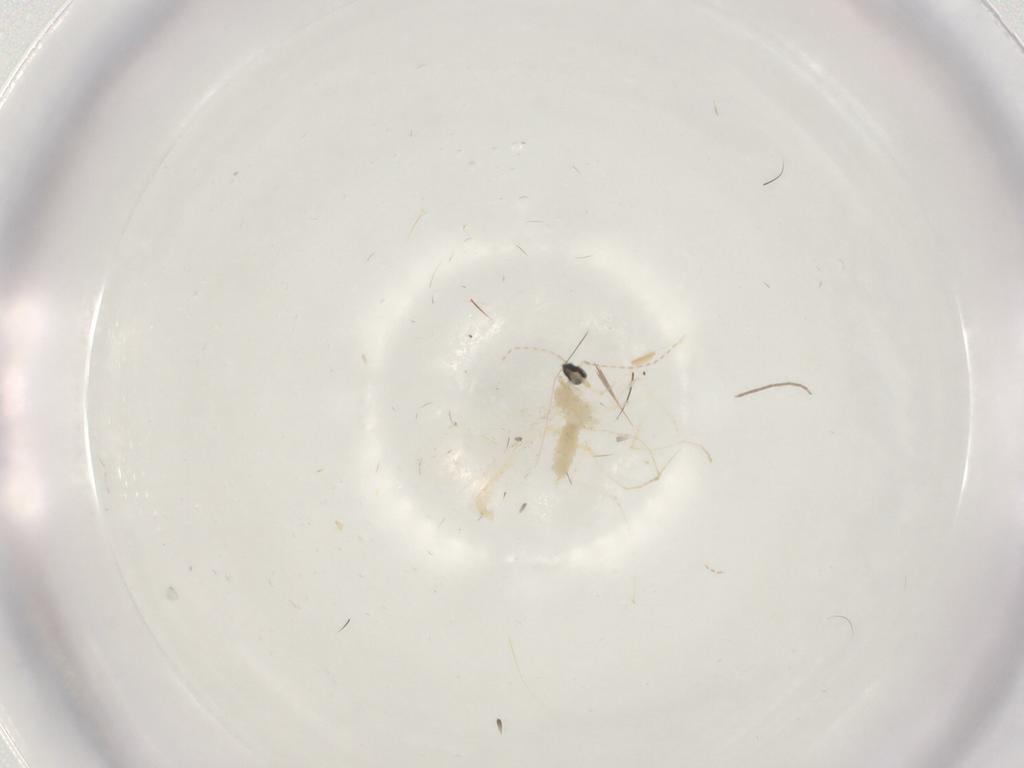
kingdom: Animalia
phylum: Arthropoda
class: Insecta
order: Diptera
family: Chironomidae
